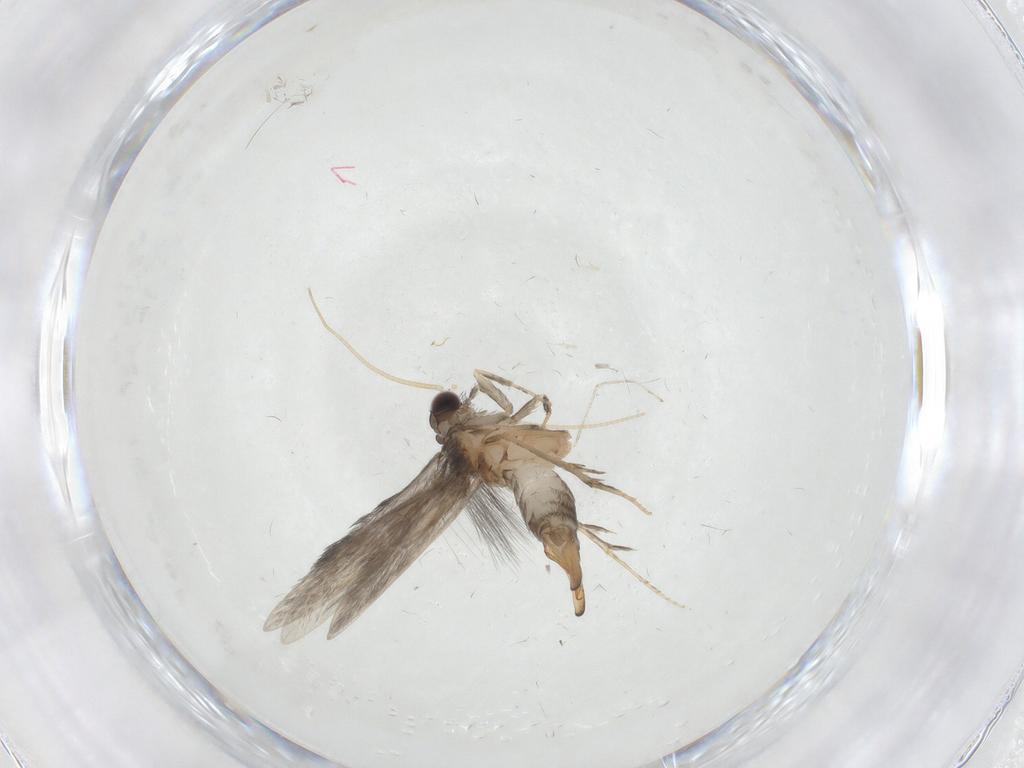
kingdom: Animalia
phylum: Arthropoda
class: Insecta
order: Trichoptera
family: Hydroptilidae
